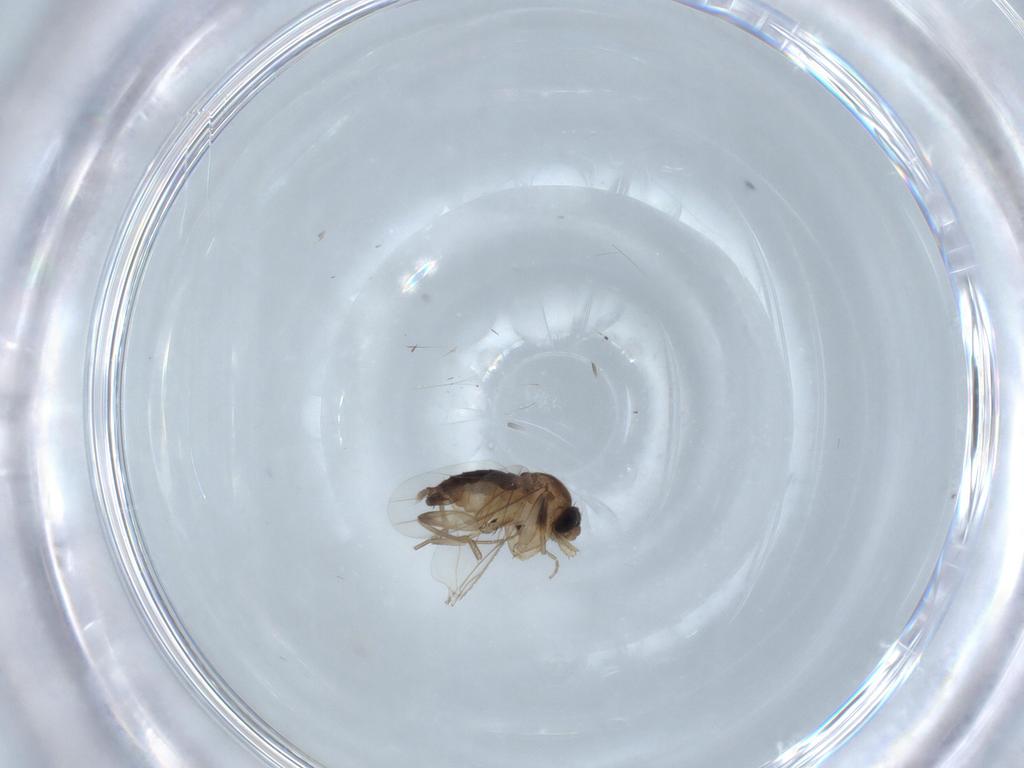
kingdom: Animalia
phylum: Arthropoda
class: Insecta
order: Diptera
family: Phoridae
